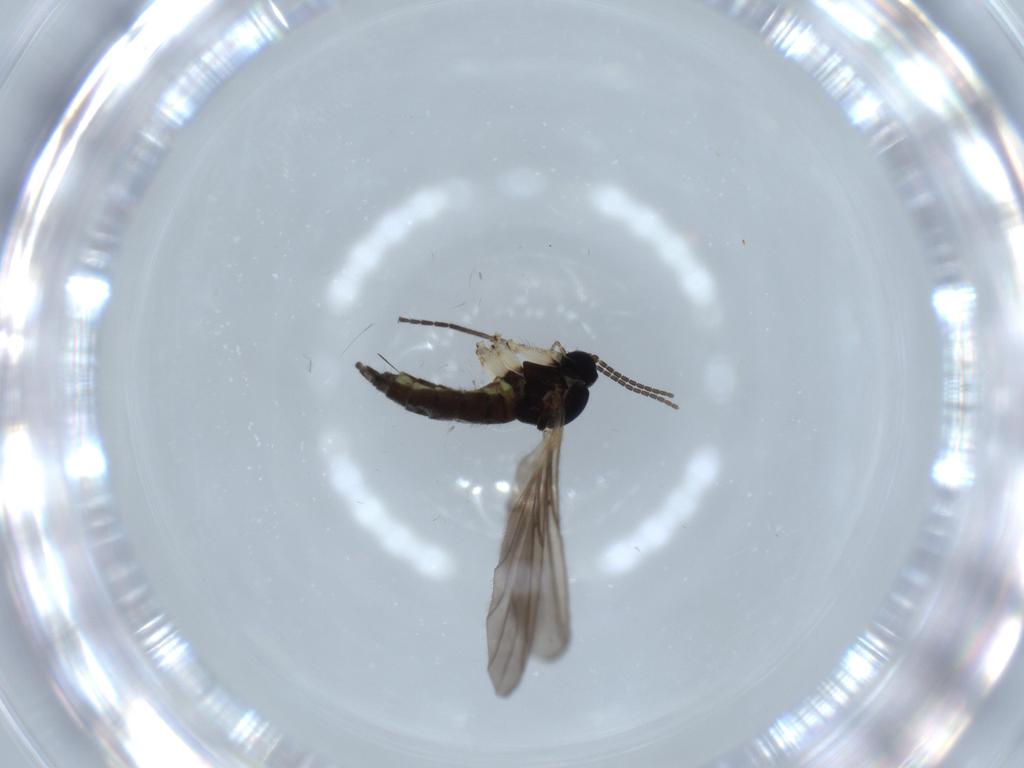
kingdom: Animalia
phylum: Arthropoda
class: Insecta
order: Diptera
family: Sciaridae
